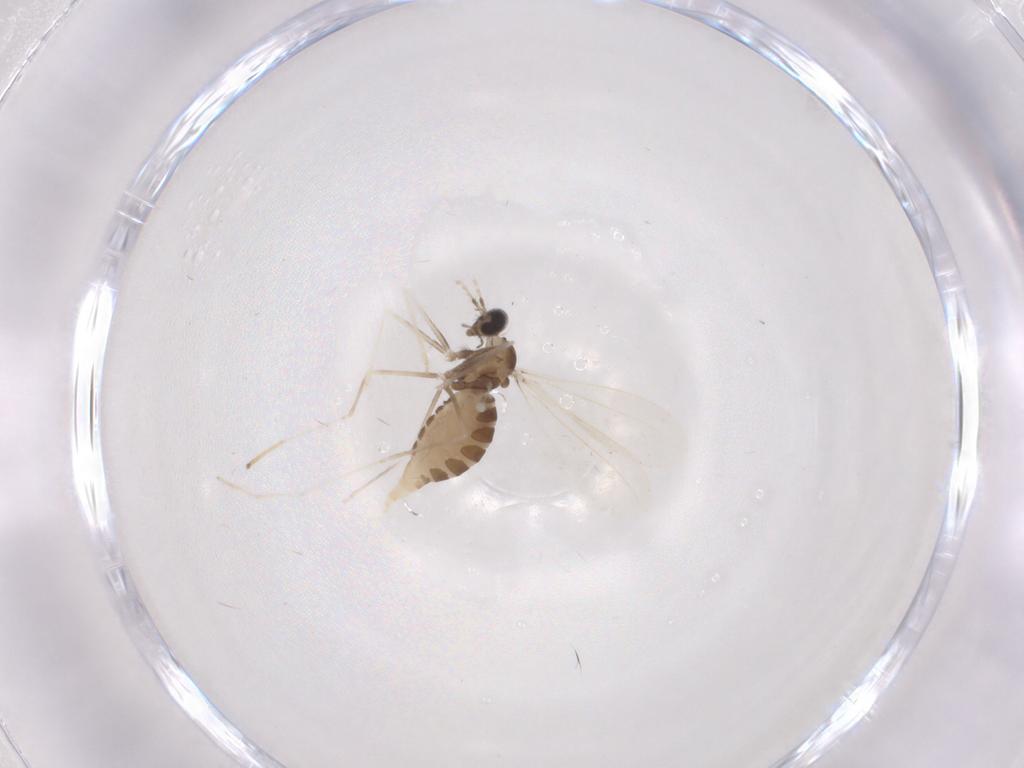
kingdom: Animalia
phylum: Arthropoda
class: Insecta
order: Diptera
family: Cecidomyiidae
